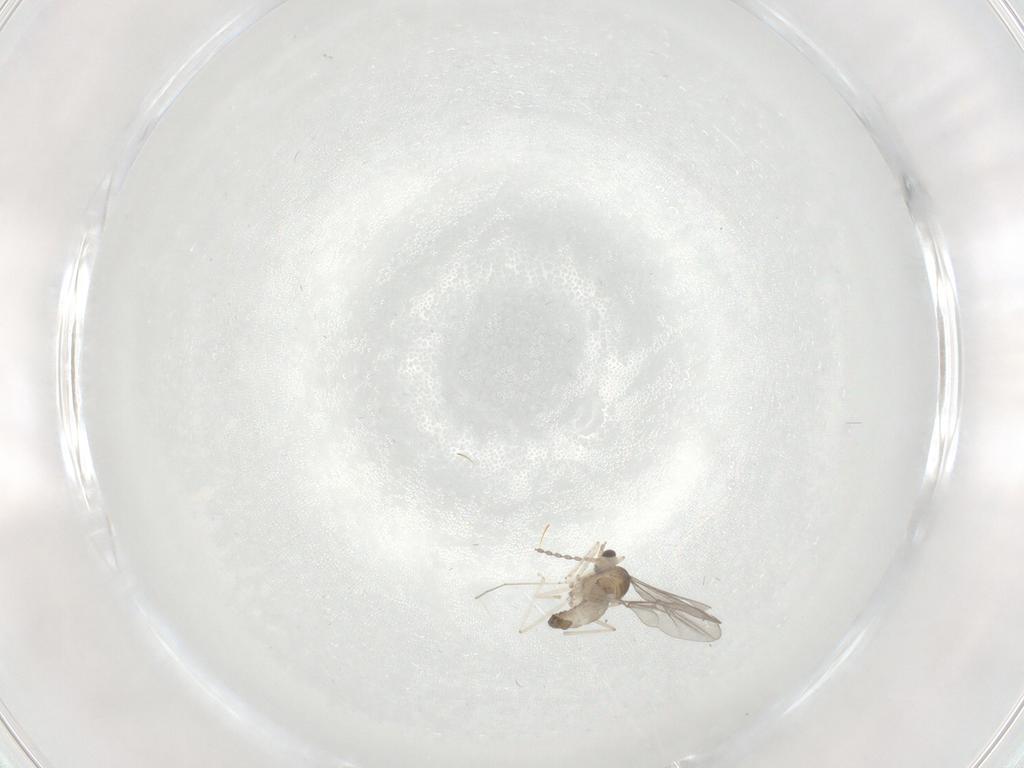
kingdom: Animalia
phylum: Arthropoda
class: Insecta
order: Diptera
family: Cecidomyiidae
